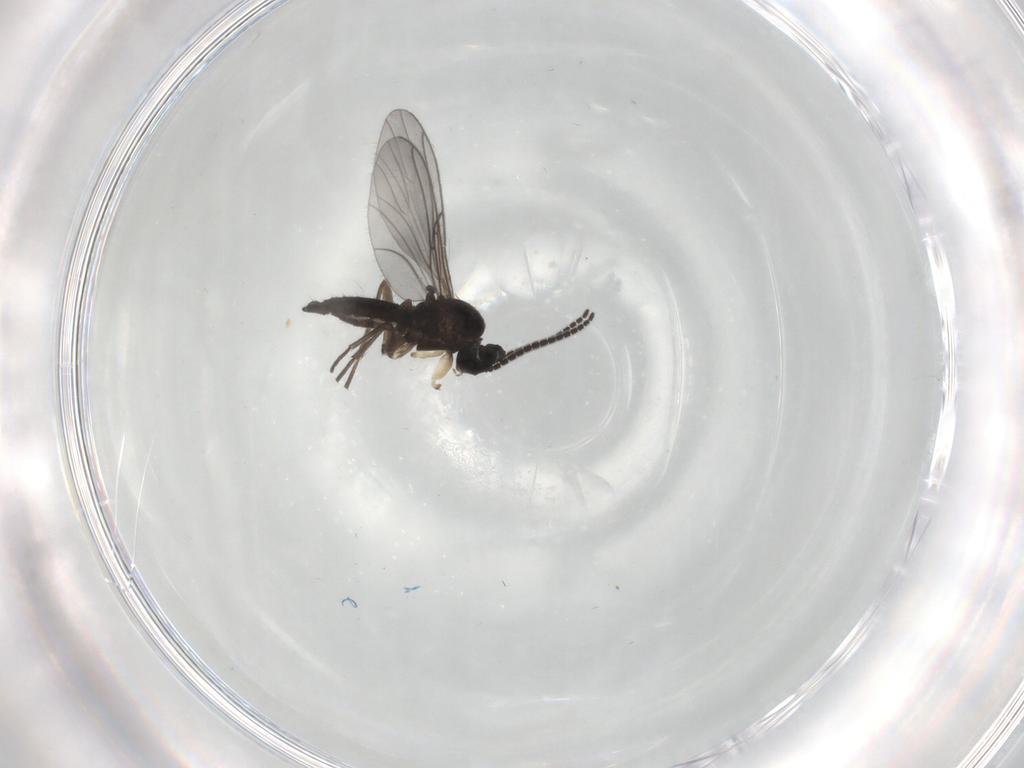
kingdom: Animalia
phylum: Arthropoda
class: Insecta
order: Diptera
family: Sciaridae
